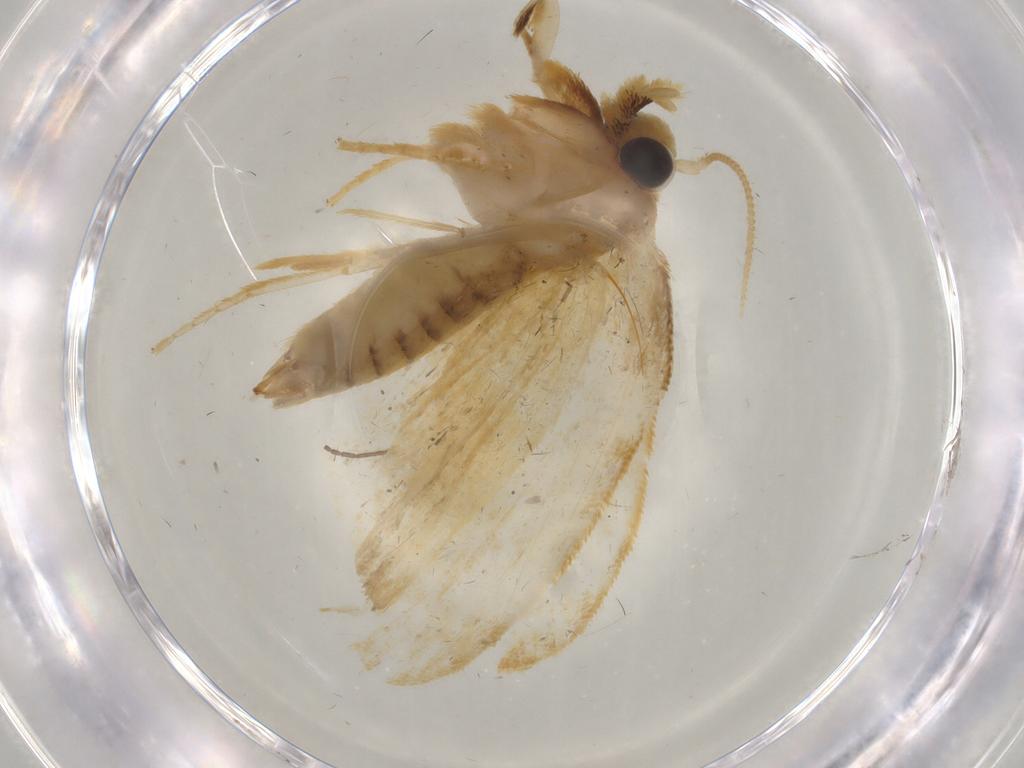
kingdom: Animalia
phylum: Arthropoda
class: Insecta
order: Lepidoptera
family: Psychidae
